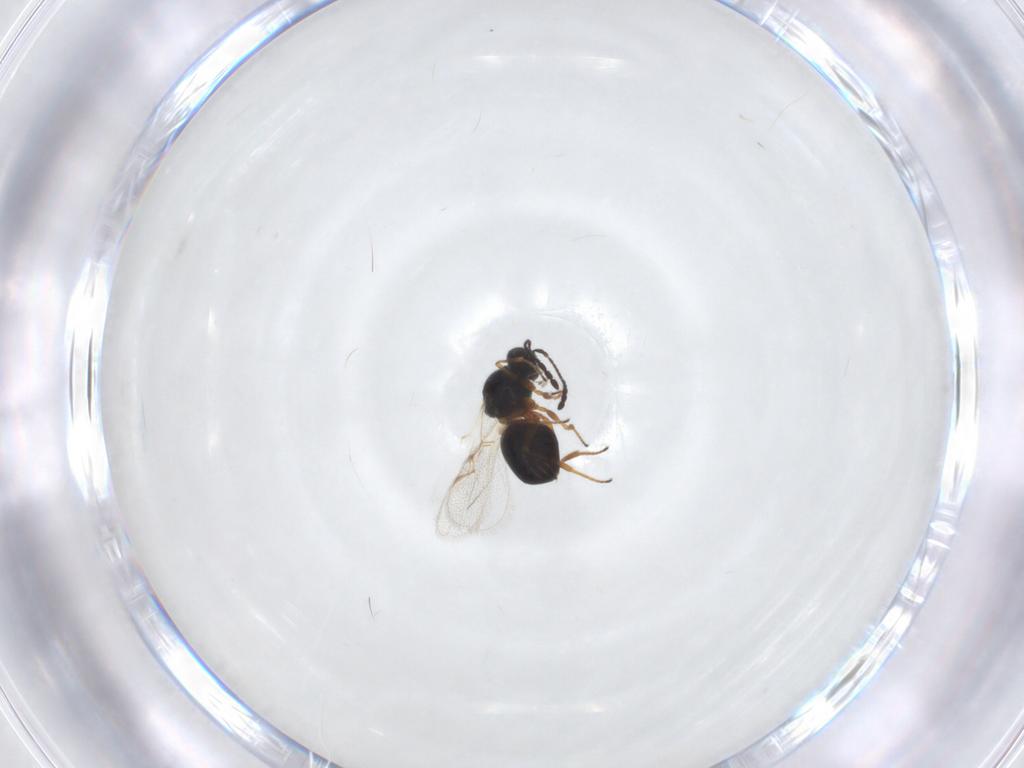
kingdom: Animalia
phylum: Arthropoda
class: Insecta
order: Hymenoptera
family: Figitidae
